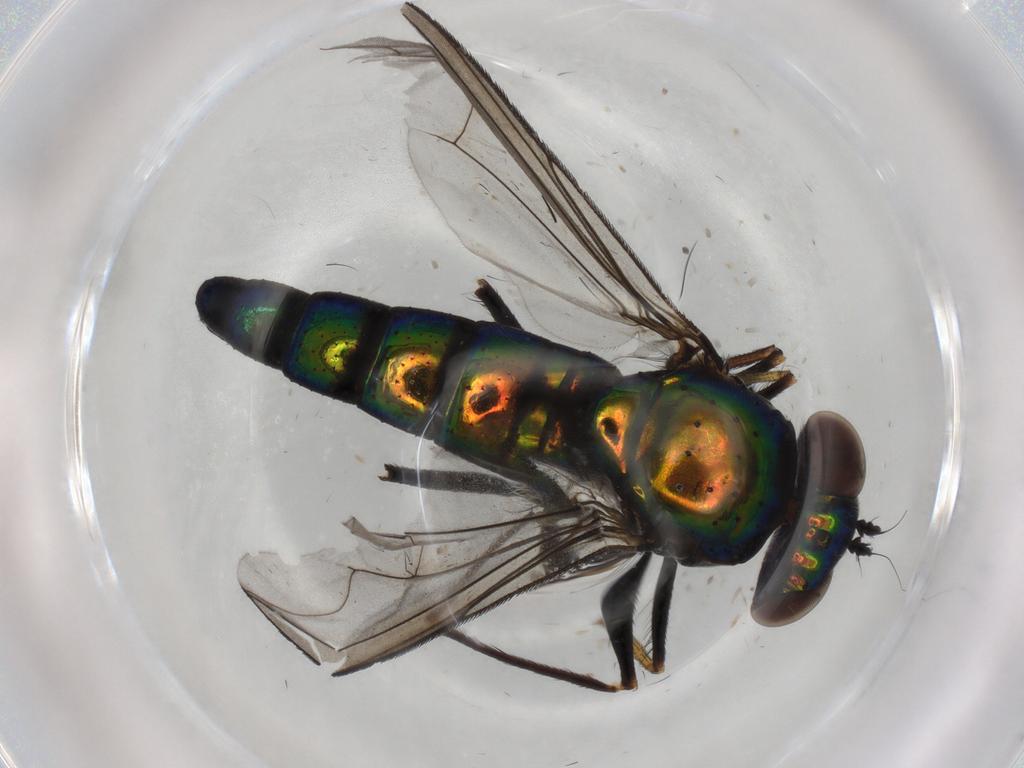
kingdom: Animalia
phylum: Arthropoda
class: Insecta
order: Diptera
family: Dolichopodidae
